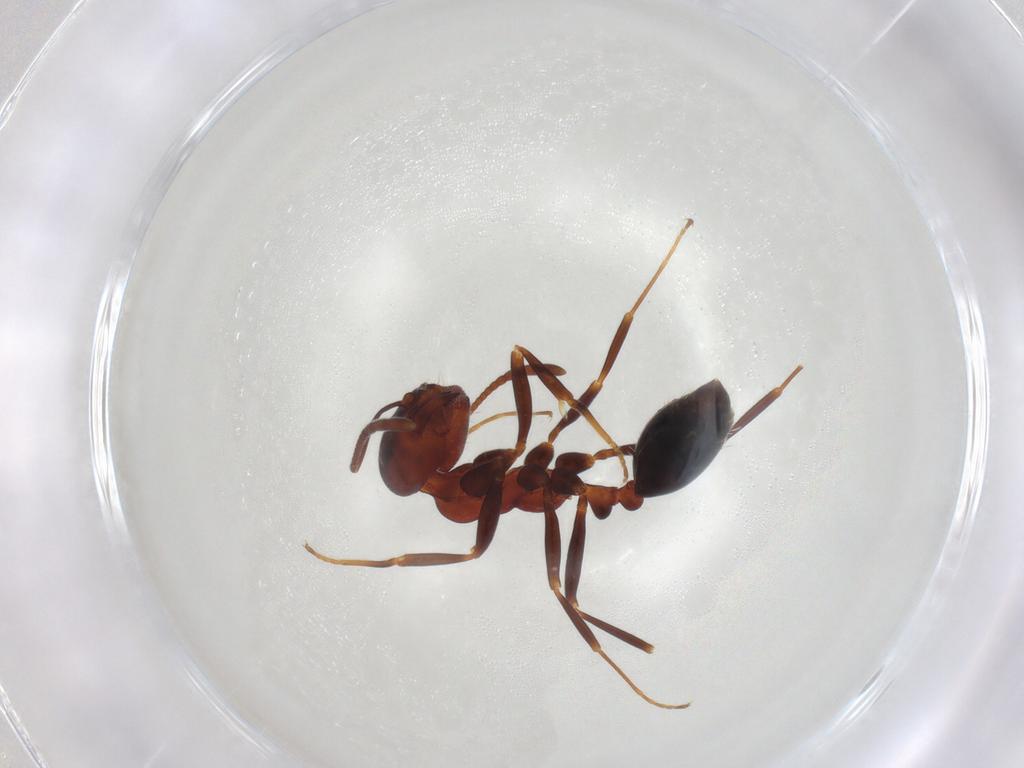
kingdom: Animalia
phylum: Arthropoda
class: Insecta
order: Hymenoptera
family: Formicidae
